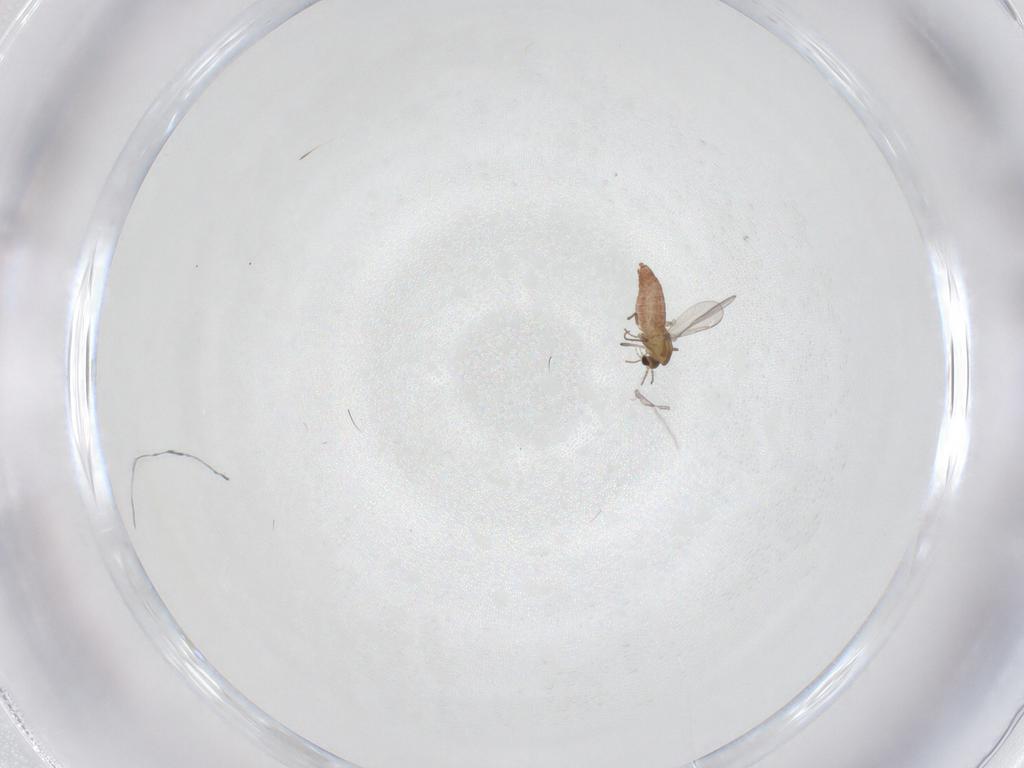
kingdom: Animalia
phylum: Arthropoda
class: Insecta
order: Diptera
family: Chironomidae
